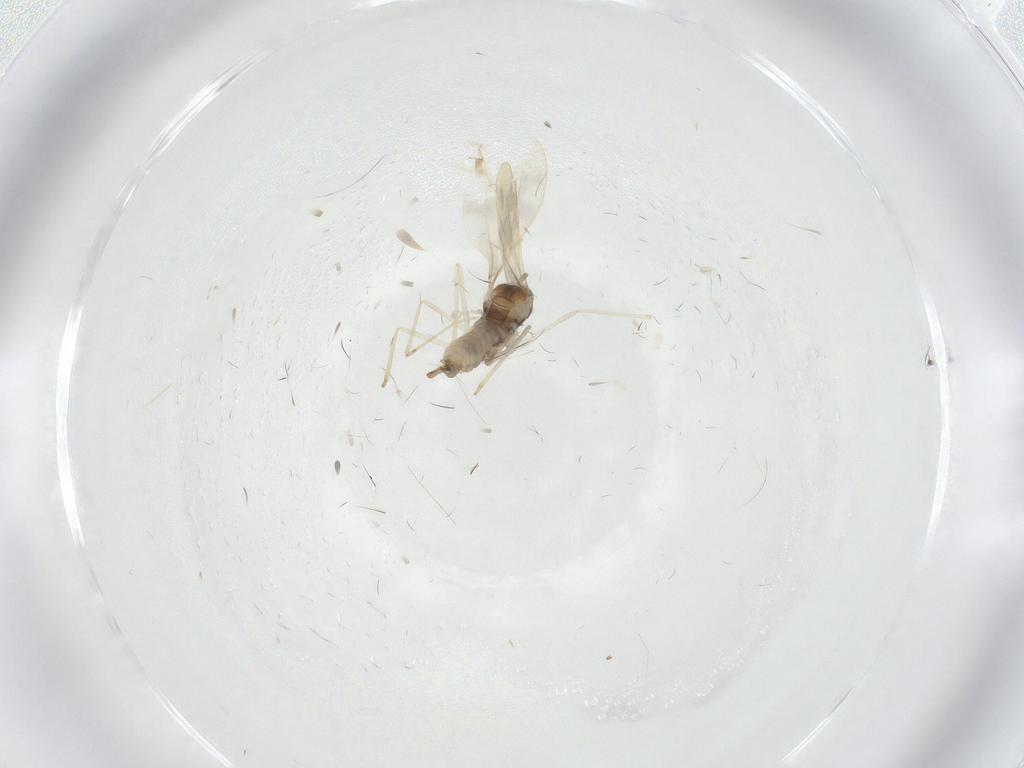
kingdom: Animalia
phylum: Arthropoda
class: Insecta
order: Diptera
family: Cecidomyiidae
